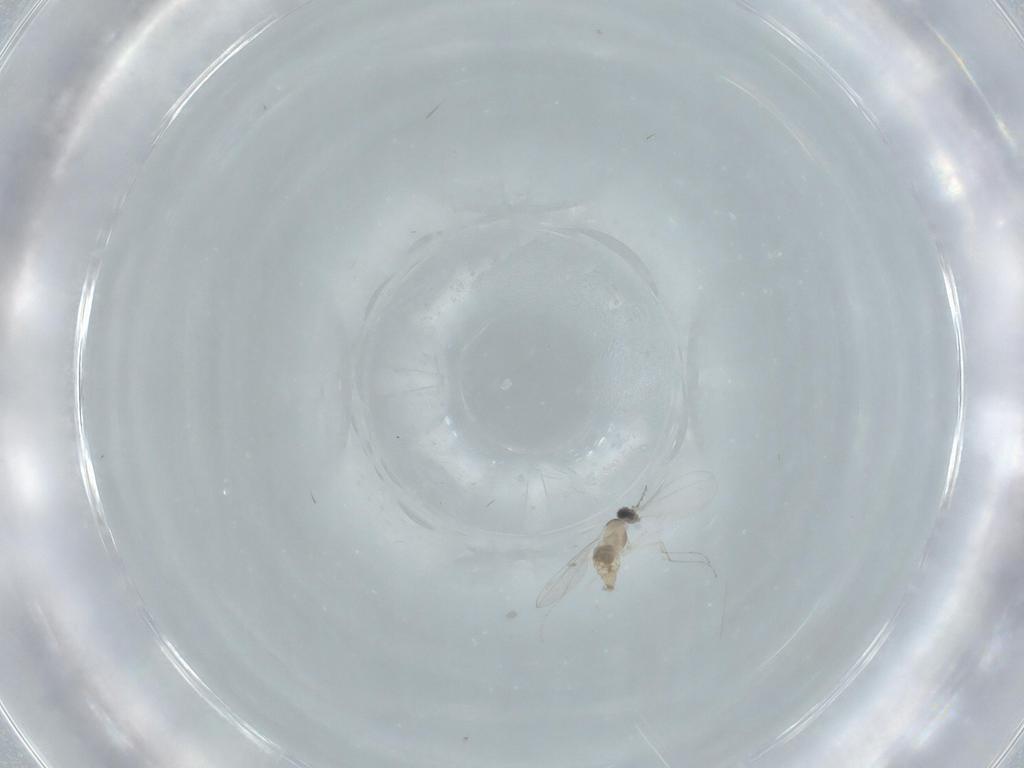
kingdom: Animalia
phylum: Arthropoda
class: Insecta
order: Diptera
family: Cecidomyiidae
